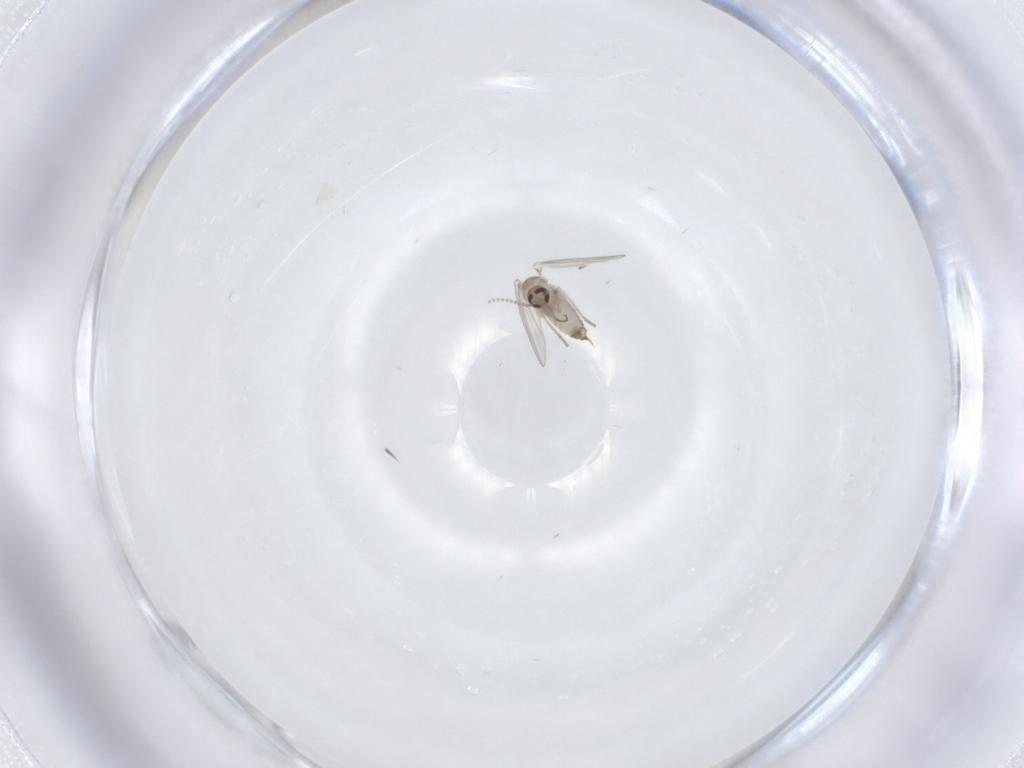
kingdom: Animalia
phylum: Arthropoda
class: Insecta
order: Diptera
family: Psychodidae
